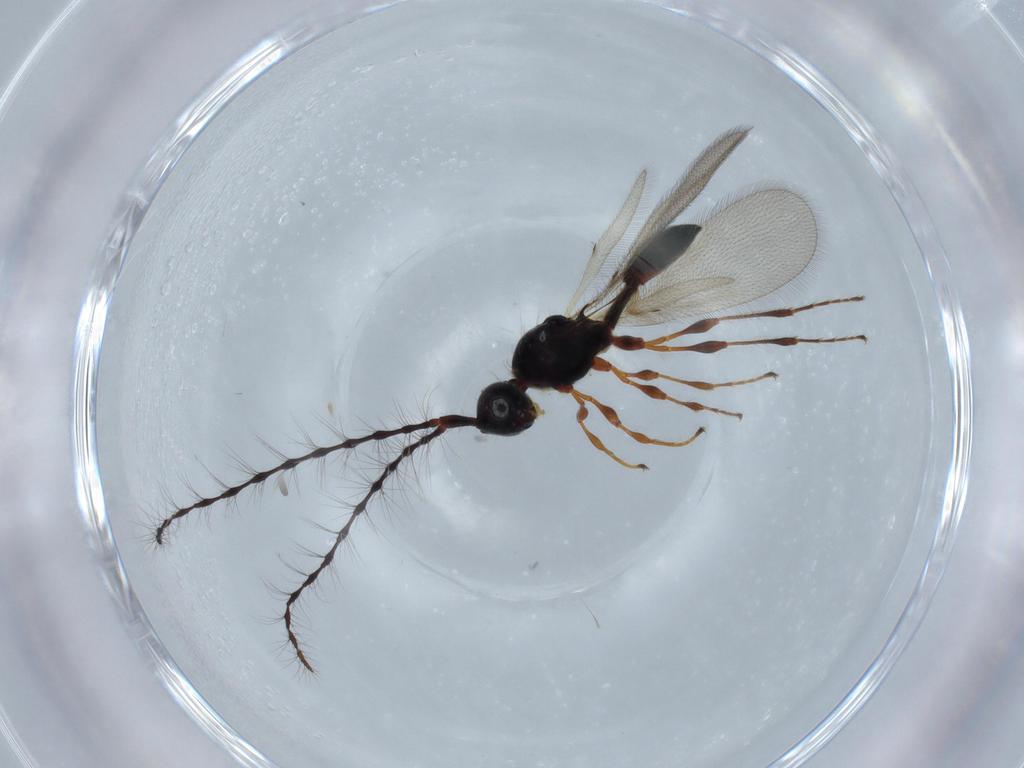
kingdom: Animalia
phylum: Arthropoda
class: Insecta
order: Hymenoptera
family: Diapriidae
